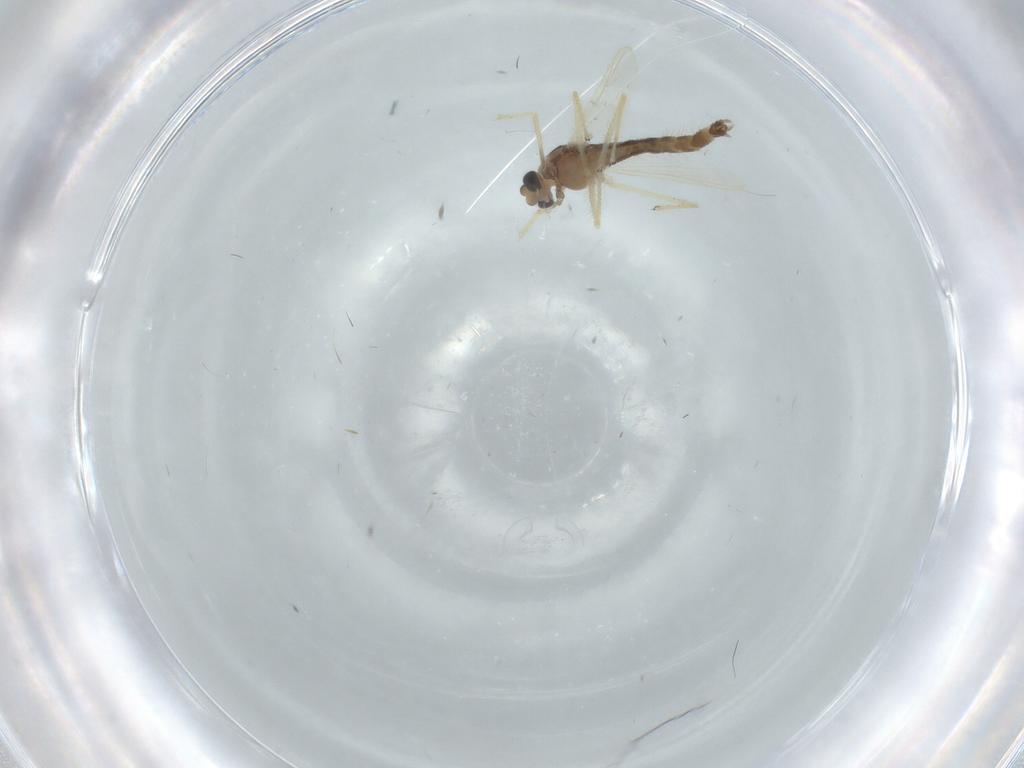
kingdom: Animalia
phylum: Arthropoda
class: Insecta
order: Diptera
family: Chironomidae
